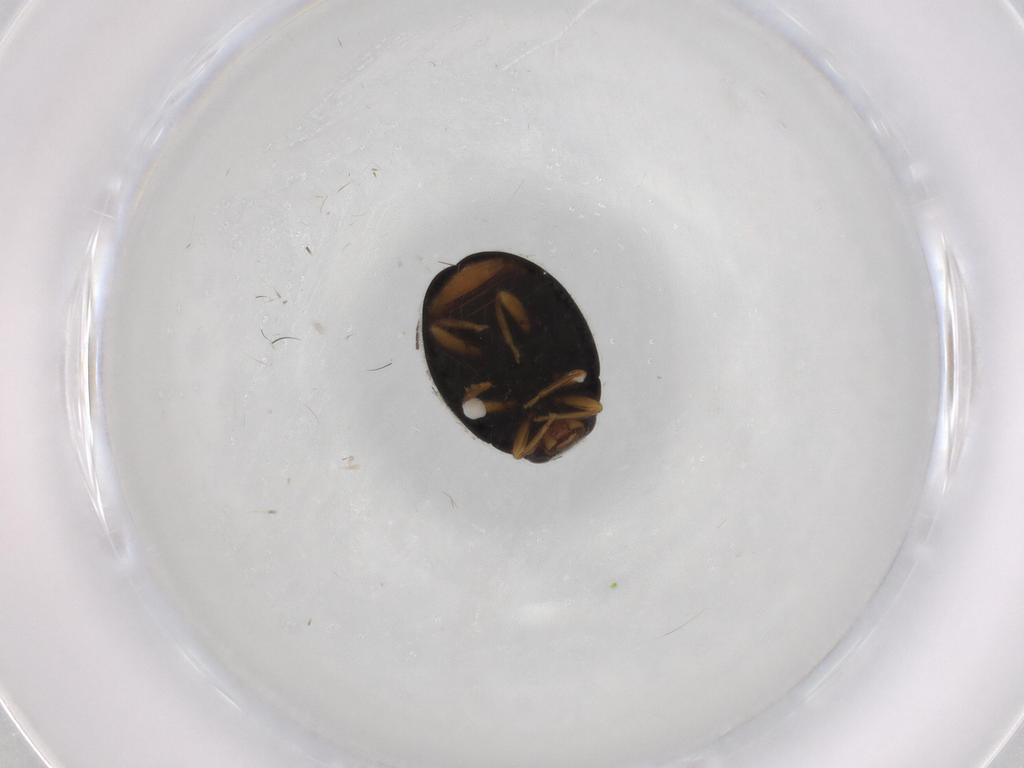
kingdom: Animalia
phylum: Arthropoda
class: Insecta
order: Coleoptera
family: Coccinellidae
